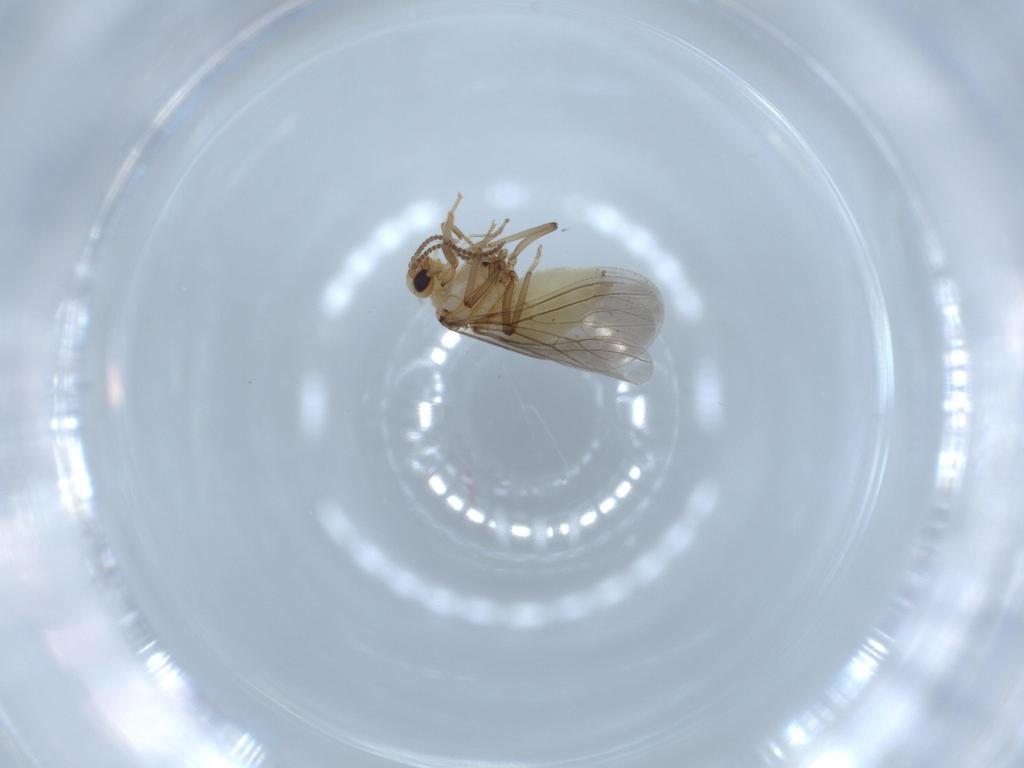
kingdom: Animalia
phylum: Arthropoda
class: Insecta
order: Neuroptera
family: Coniopterygidae
